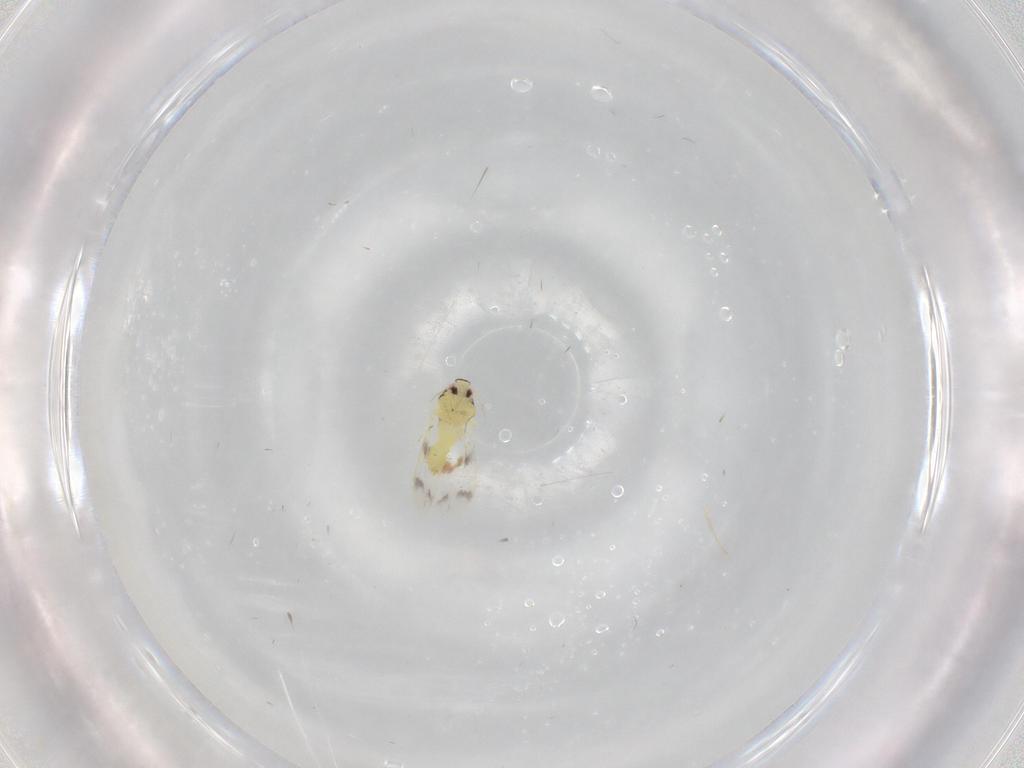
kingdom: Animalia
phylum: Arthropoda
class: Insecta
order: Hemiptera
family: Aleyrodidae
